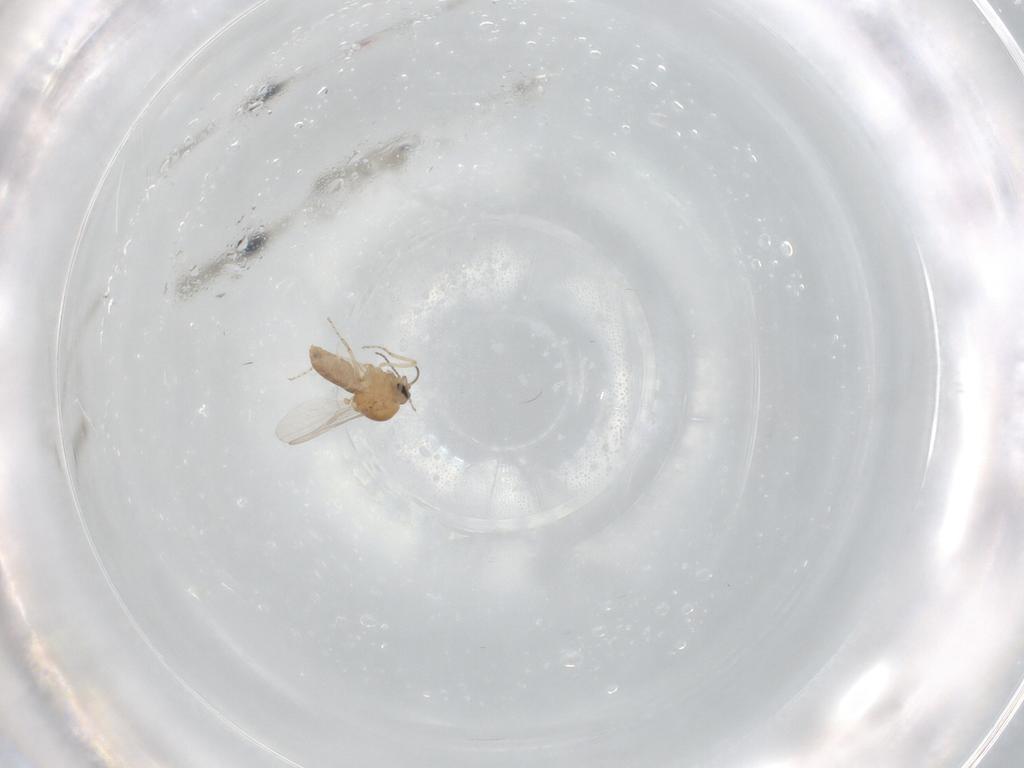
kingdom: Animalia
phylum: Arthropoda
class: Insecta
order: Diptera
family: Ceratopogonidae
